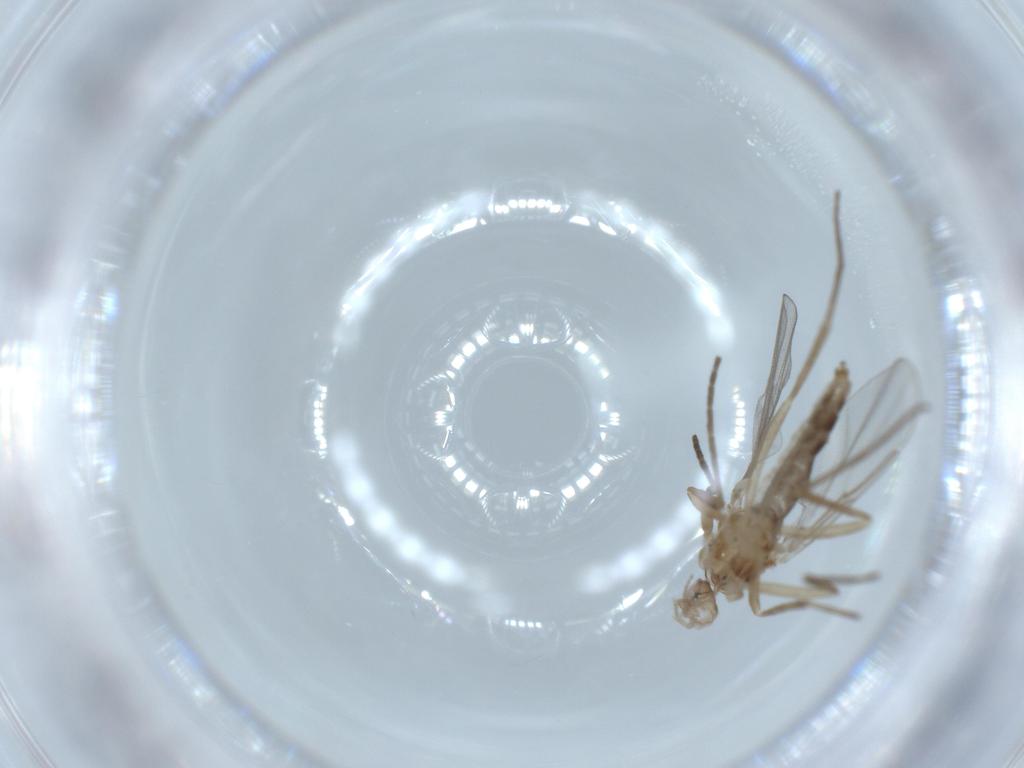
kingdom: Animalia
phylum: Arthropoda
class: Insecta
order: Diptera
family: Cecidomyiidae
